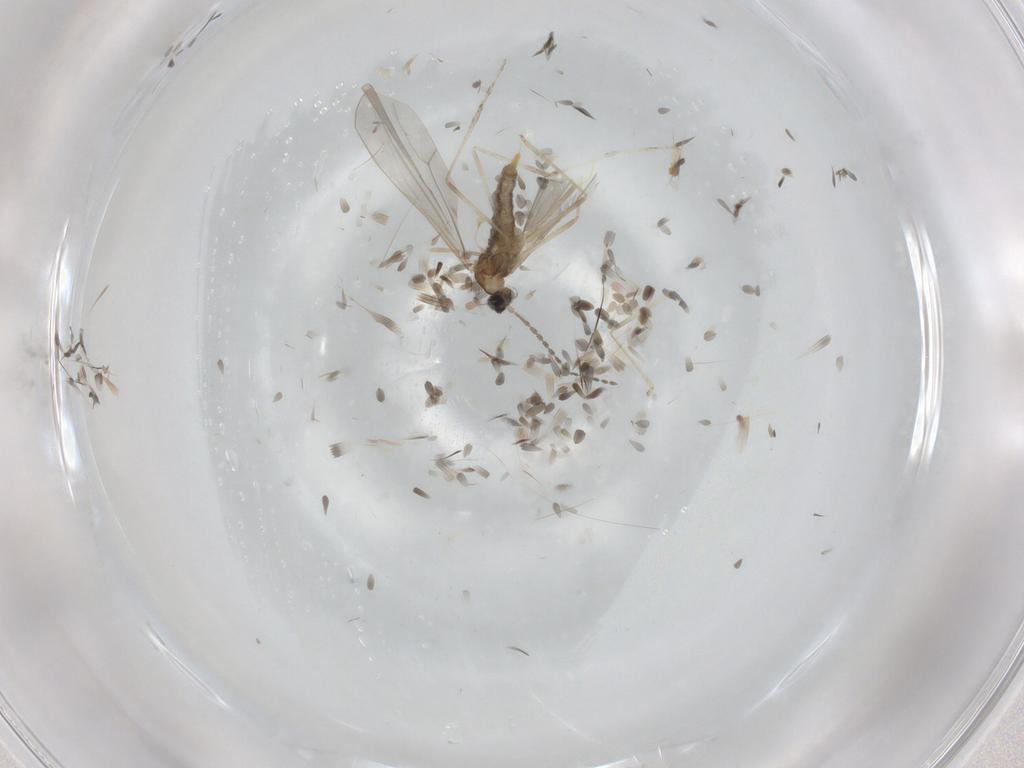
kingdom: Animalia
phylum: Arthropoda
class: Insecta
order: Diptera
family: Cecidomyiidae
